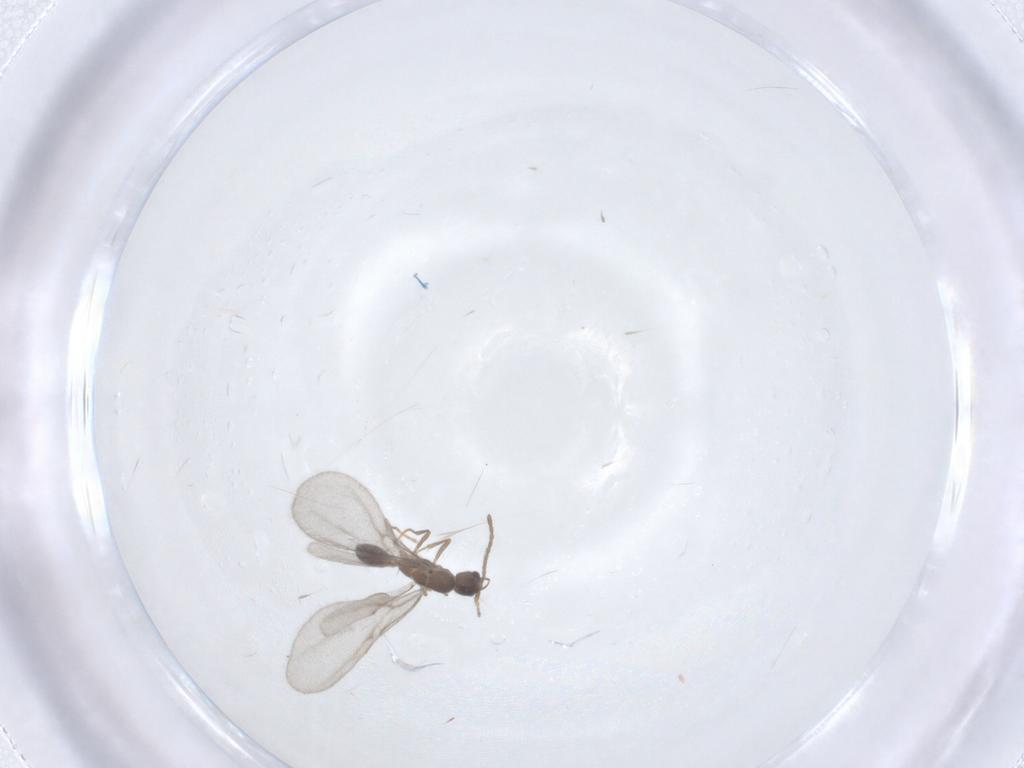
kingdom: Animalia
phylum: Arthropoda
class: Insecta
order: Hymenoptera
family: Formicidae
